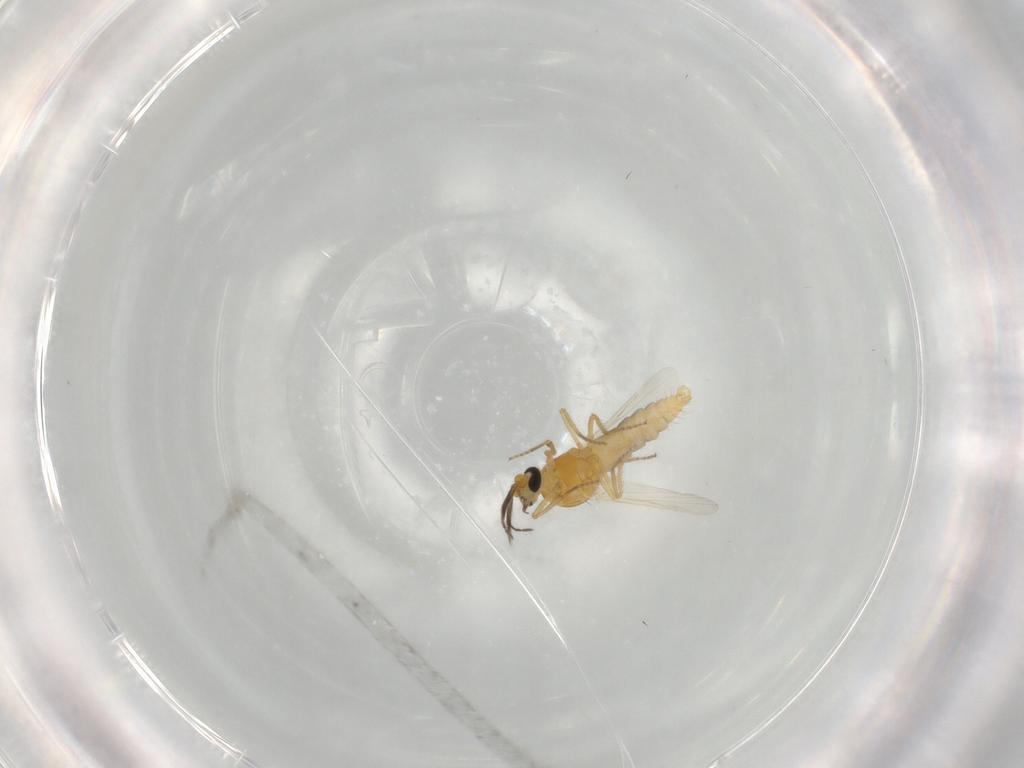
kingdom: Animalia
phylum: Arthropoda
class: Insecta
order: Diptera
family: Ceratopogonidae
